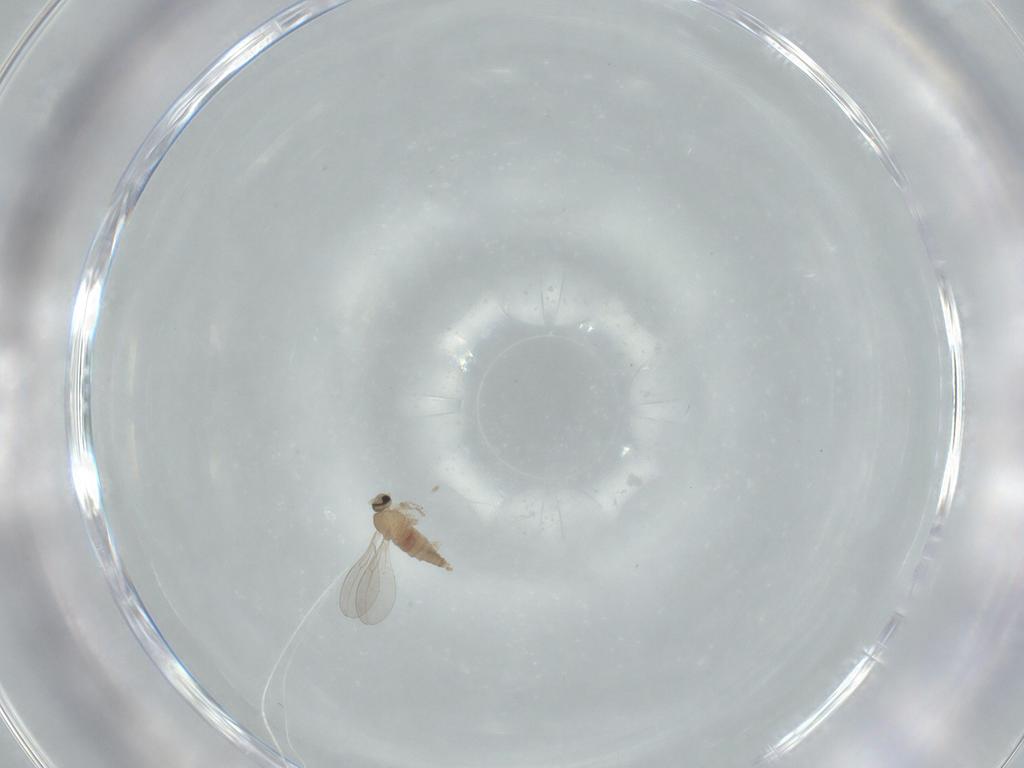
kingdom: Animalia
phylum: Arthropoda
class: Insecta
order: Diptera
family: Cecidomyiidae
